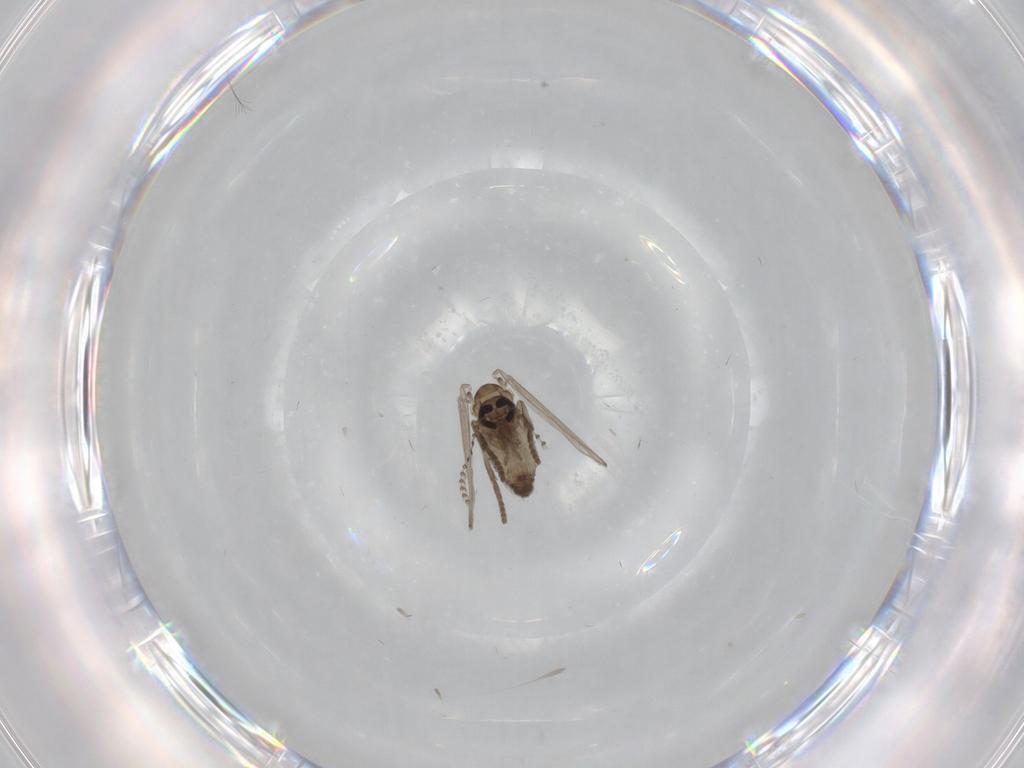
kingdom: Animalia
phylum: Arthropoda
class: Insecta
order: Diptera
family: Psychodidae
